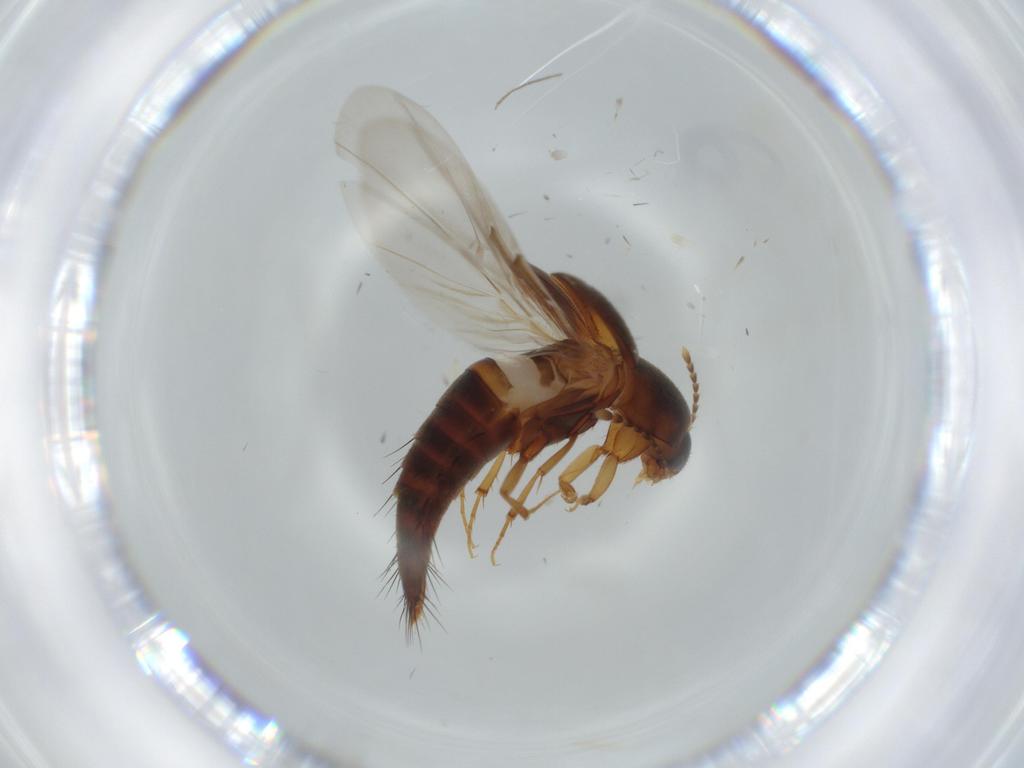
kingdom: Animalia
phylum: Arthropoda
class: Insecta
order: Coleoptera
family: Staphylinidae
